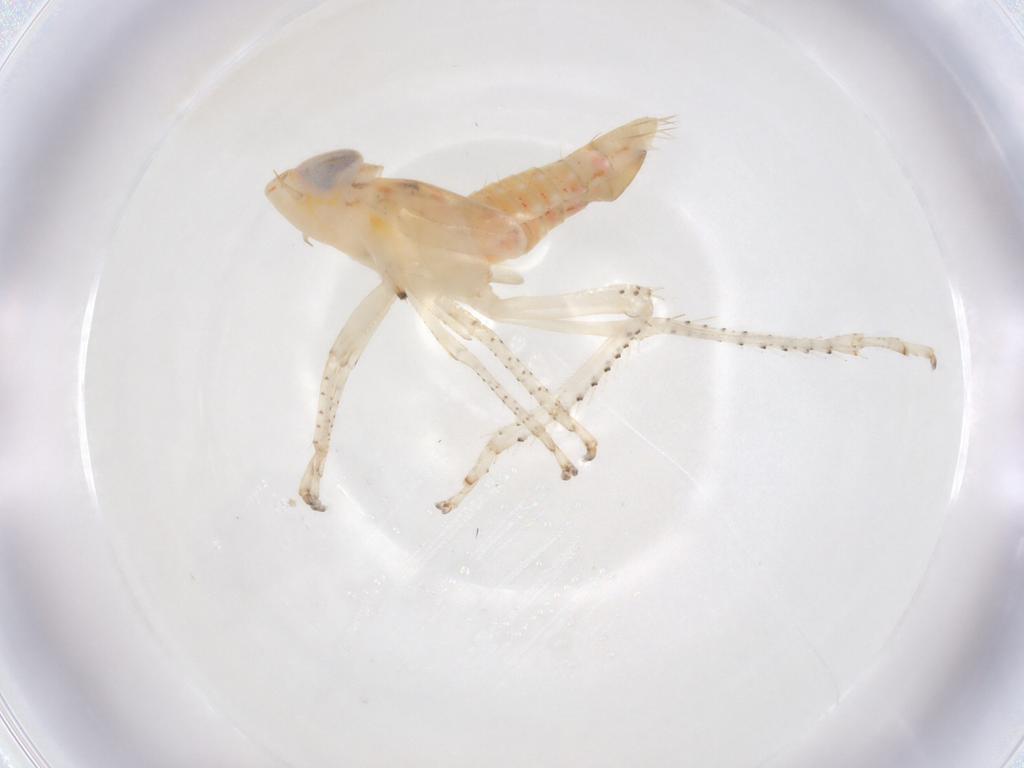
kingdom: Animalia
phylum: Arthropoda
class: Insecta
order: Hemiptera
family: Cicadellidae
